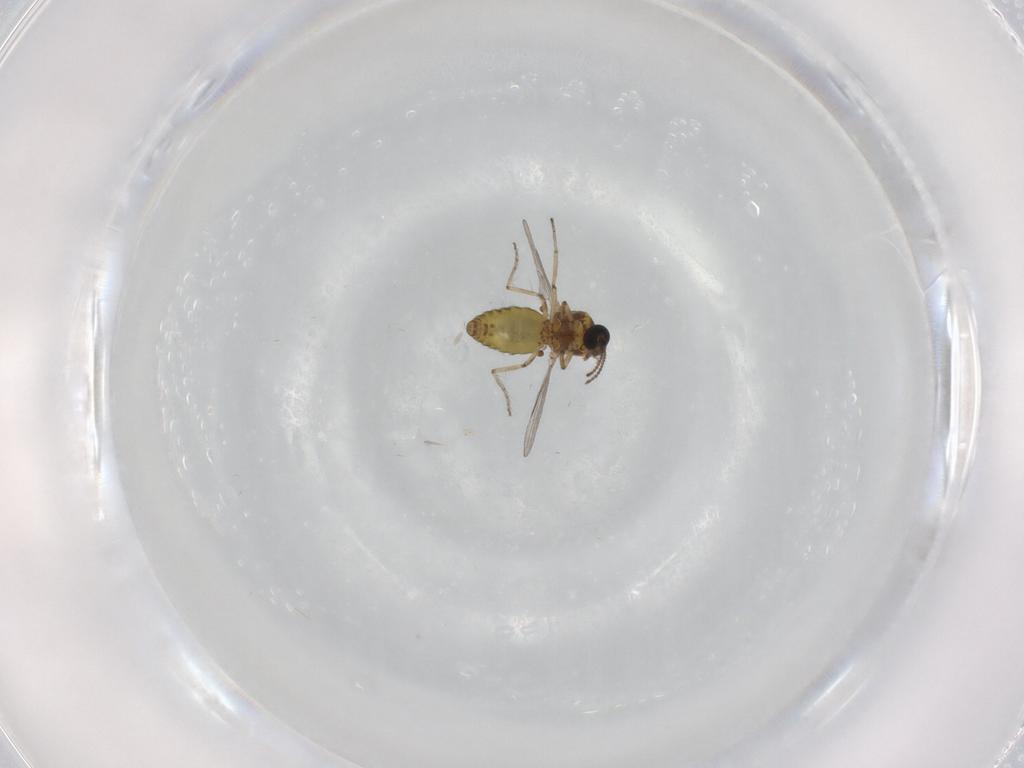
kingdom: Animalia
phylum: Arthropoda
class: Insecta
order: Diptera
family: Ceratopogonidae
